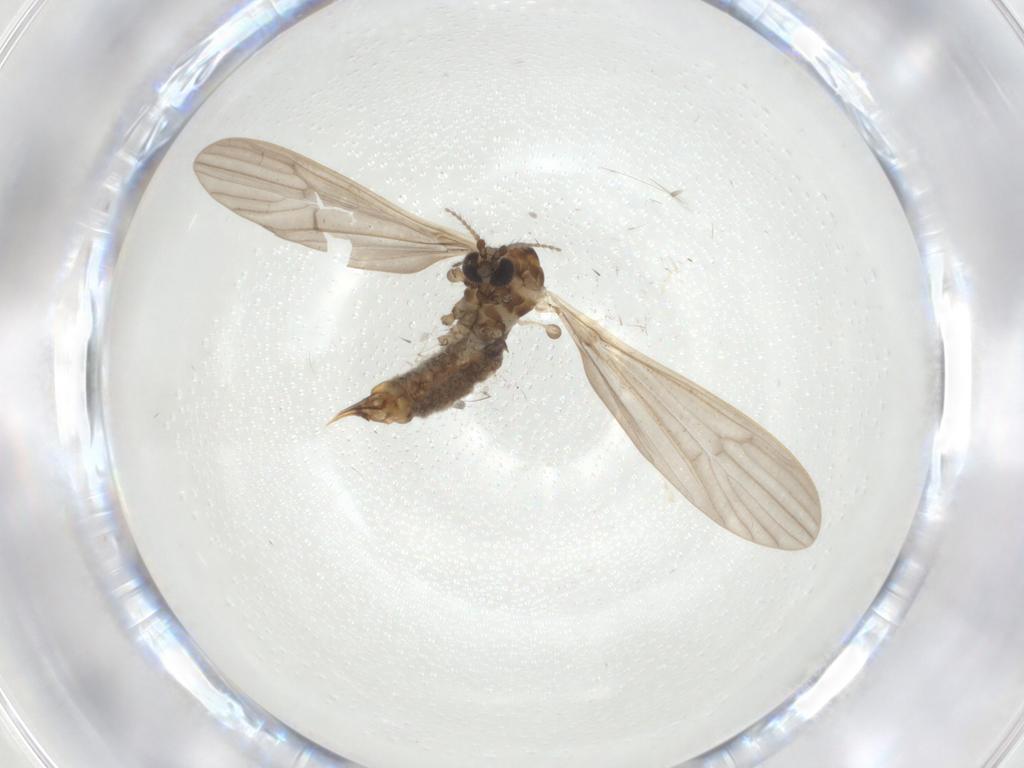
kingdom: Animalia
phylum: Arthropoda
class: Insecta
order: Diptera
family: Limoniidae
